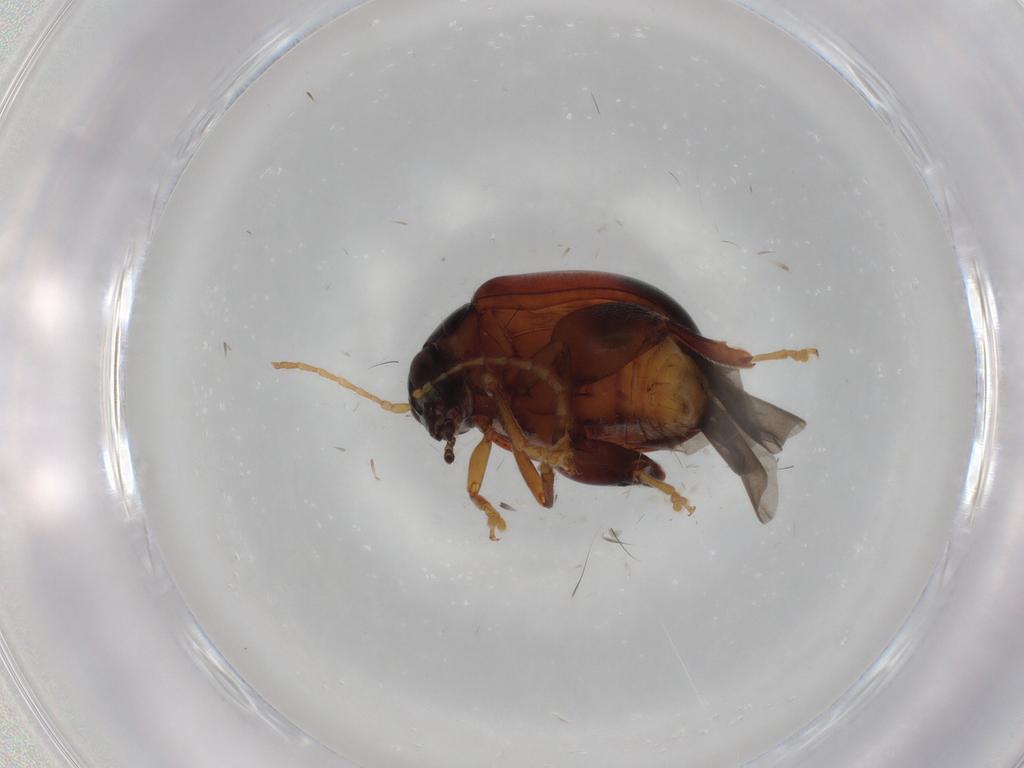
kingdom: Animalia
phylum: Arthropoda
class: Insecta
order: Coleoptera
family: Chrysomelidae
